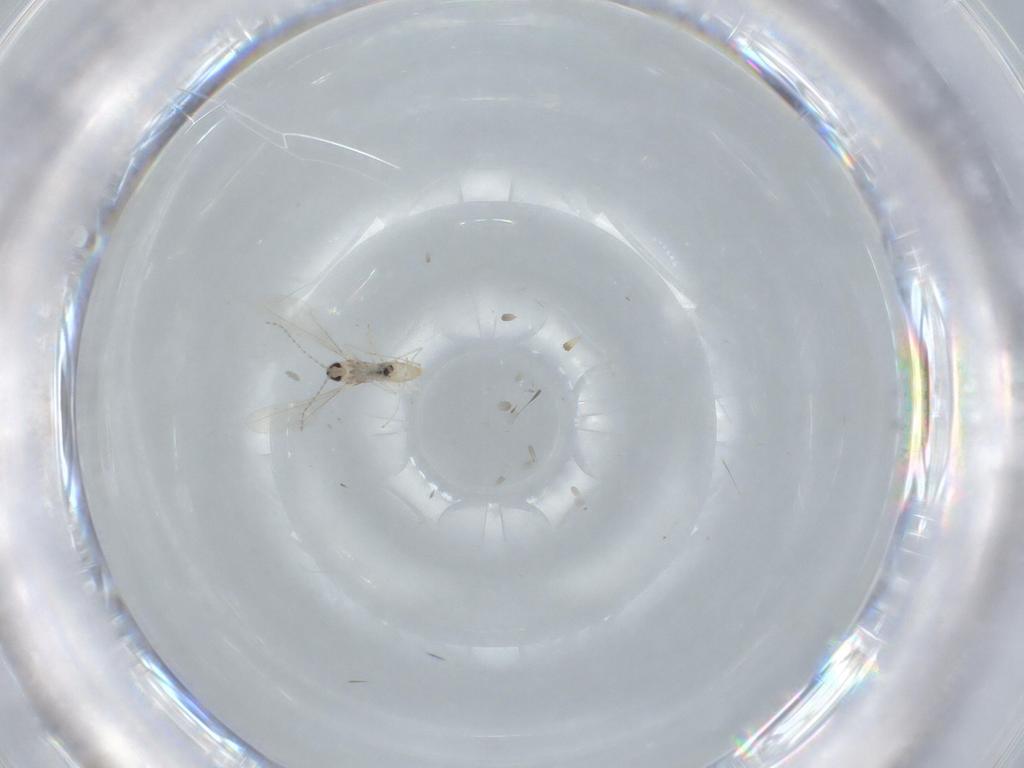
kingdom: Animalia
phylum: Arthropoda
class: Insecta
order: Diptera
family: Cecidomyiidae
